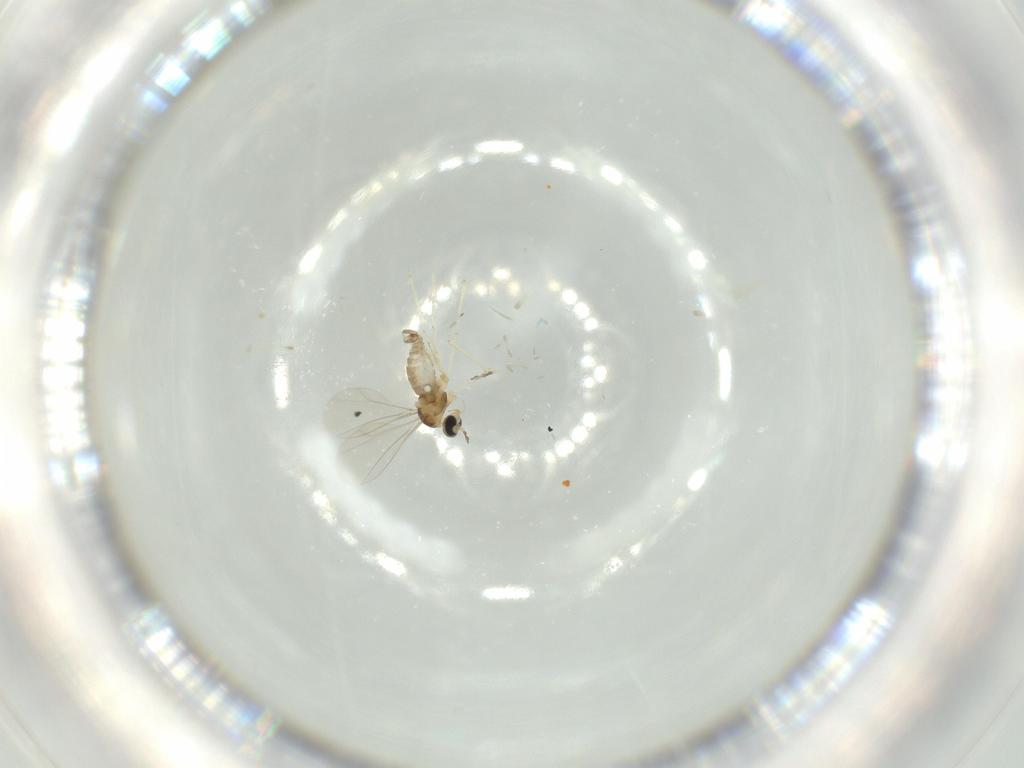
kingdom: Animalia
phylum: Arthropoda
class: Insecta
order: Diptera
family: Cecidomyiidae
